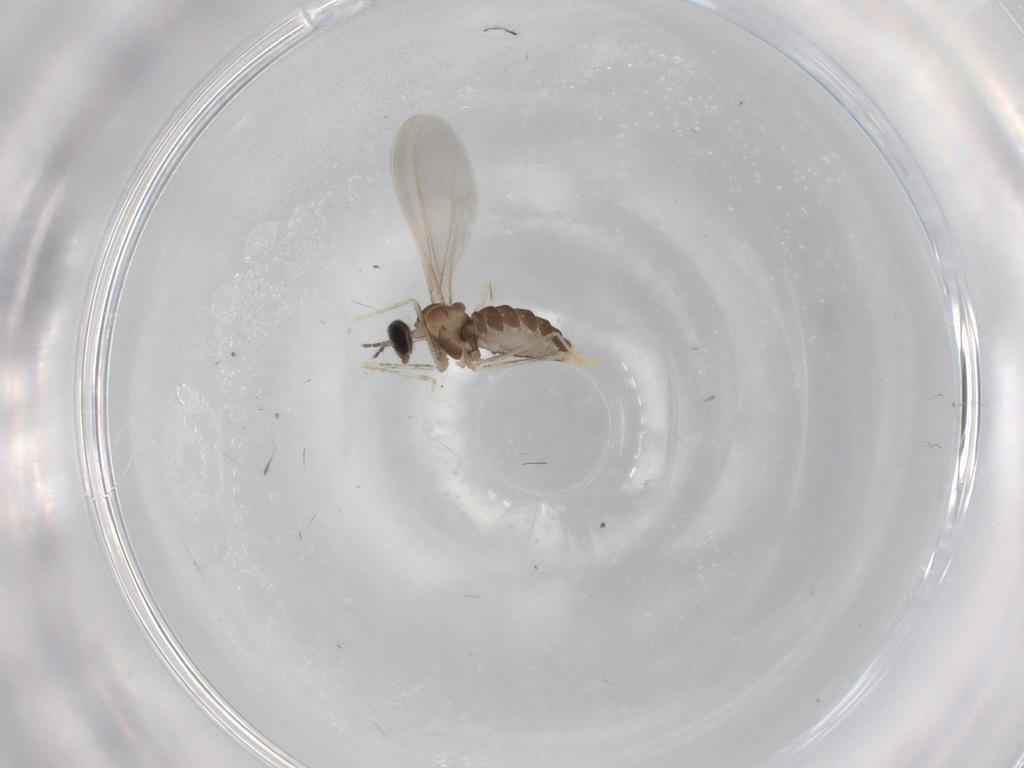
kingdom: Animalia
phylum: Arthropoda
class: Insecta
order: Diptera
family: Cecidomyiidae
